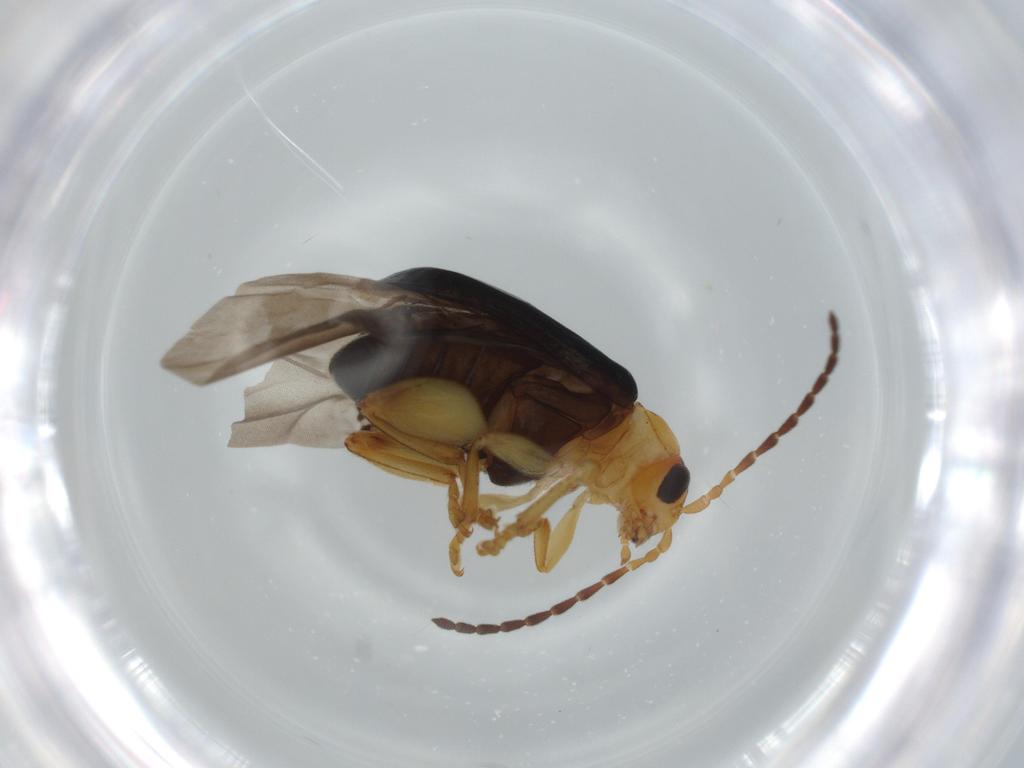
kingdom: Animalia
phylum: Arthropoda
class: Insecta
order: Coleoptera
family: Chrysomelidae
